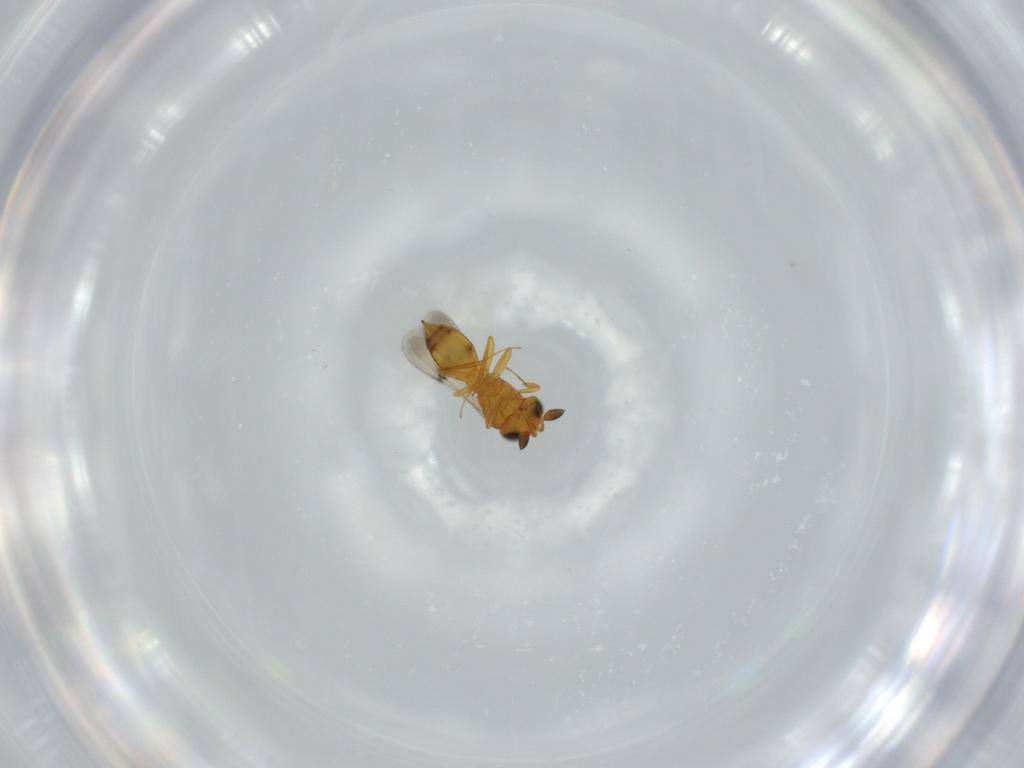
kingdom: Animalia
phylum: Arthropoda
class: Insecta
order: Hymenoptera
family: Scelionidae
